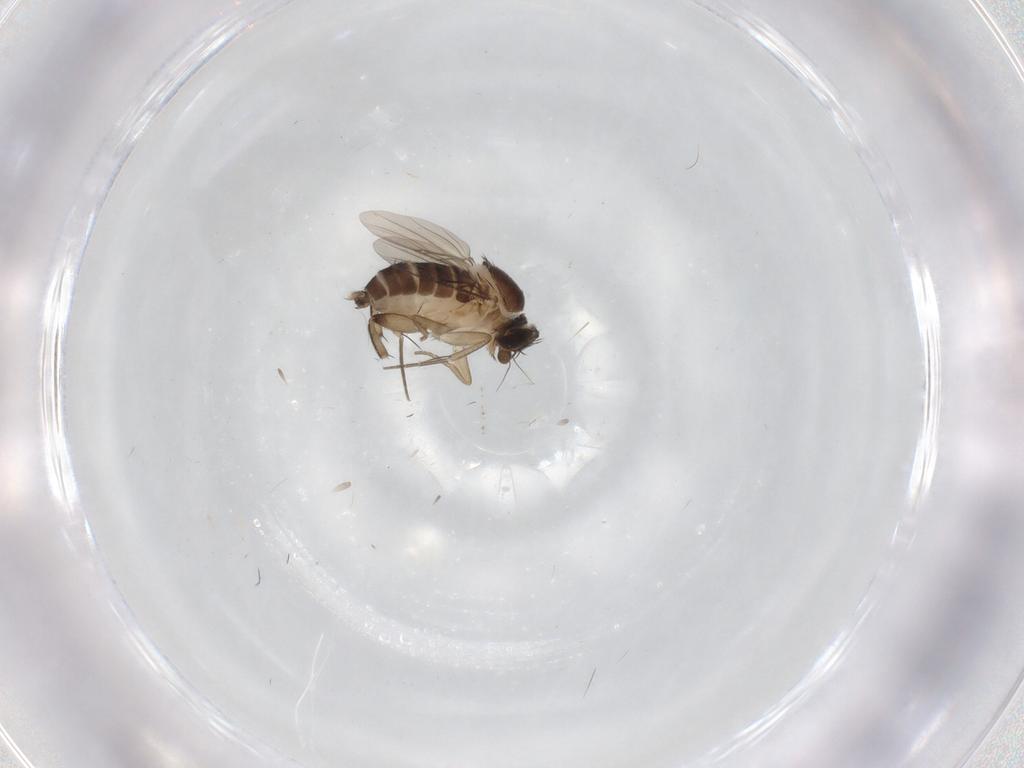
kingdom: Animalia
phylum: Arthropoda
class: Insecta
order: Diptera
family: Phoridae
